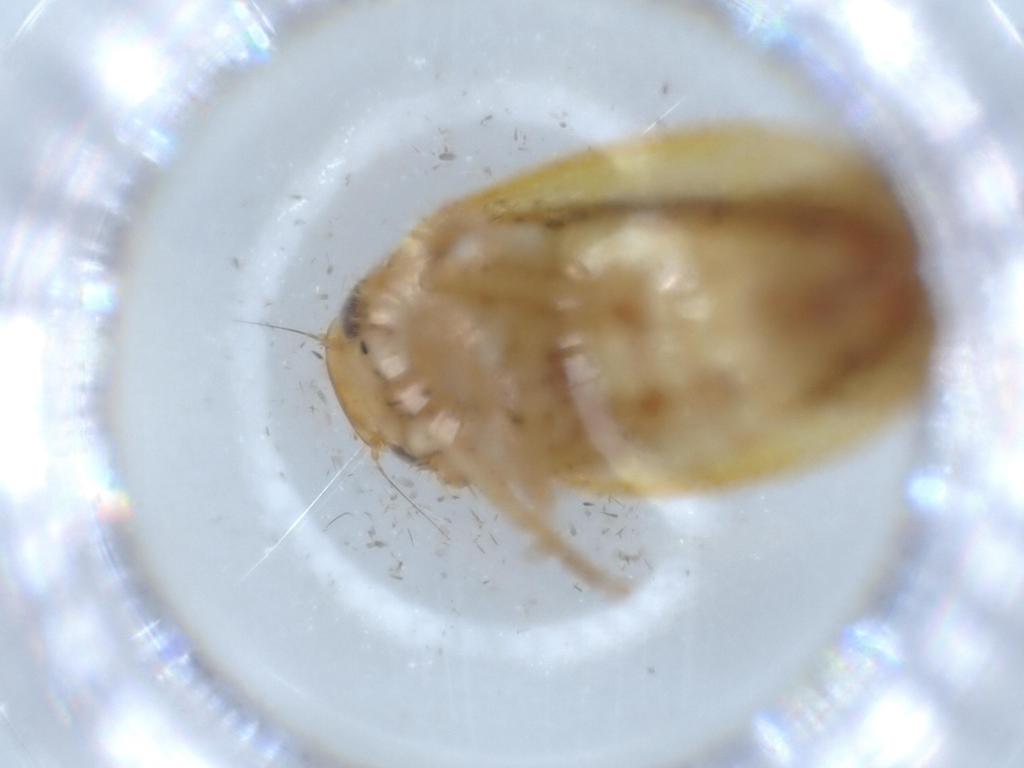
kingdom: Animalia
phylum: Arthropoda
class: Insecta
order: Hemiptera
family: Cicadellidae
